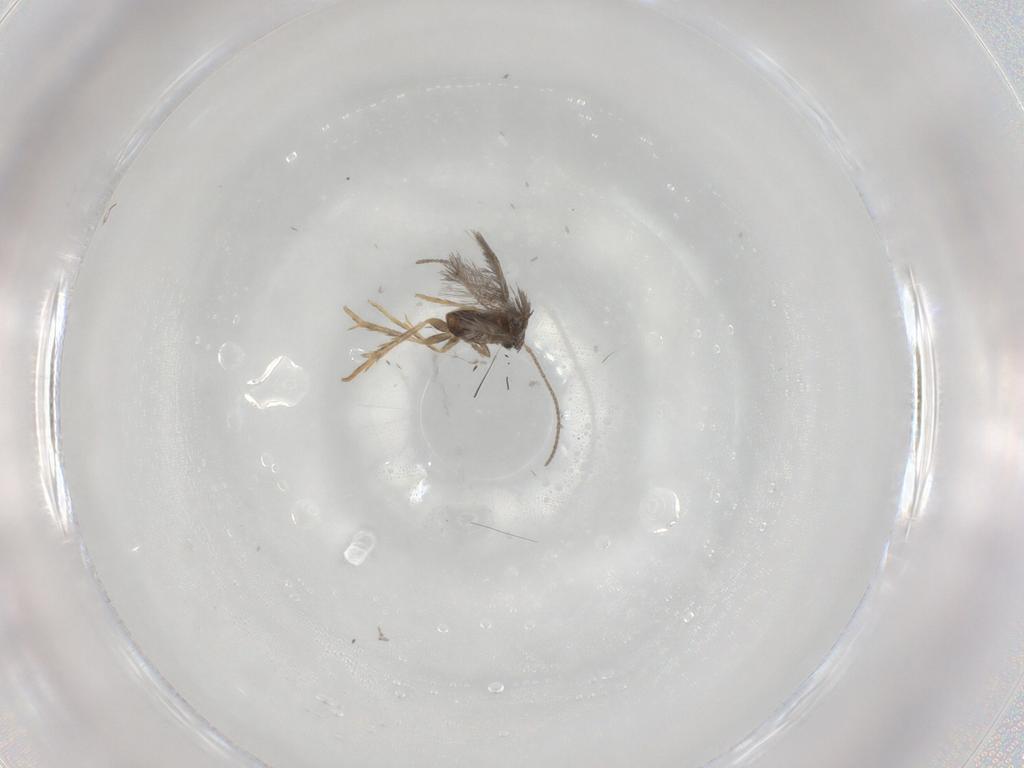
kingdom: Animalia
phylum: Arthropoda
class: Insecta
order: Lepidoptera
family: Nepticulidae
